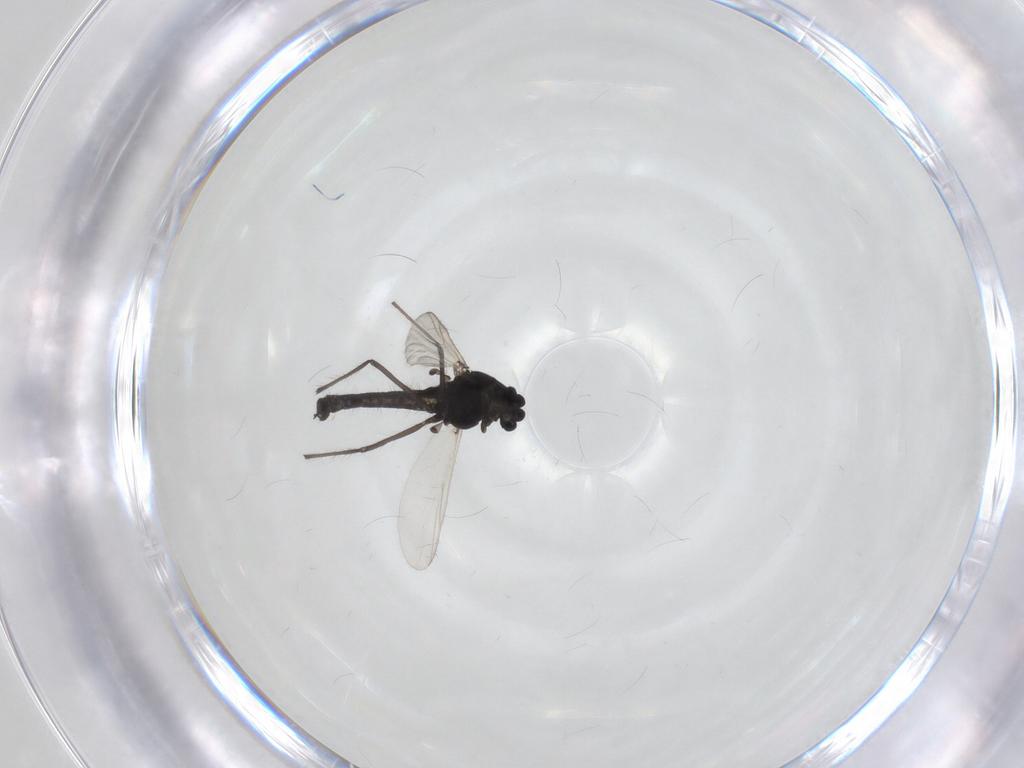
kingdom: Animalia
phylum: Arthropoda
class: Insecta
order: Diptera
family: Chironomidae
